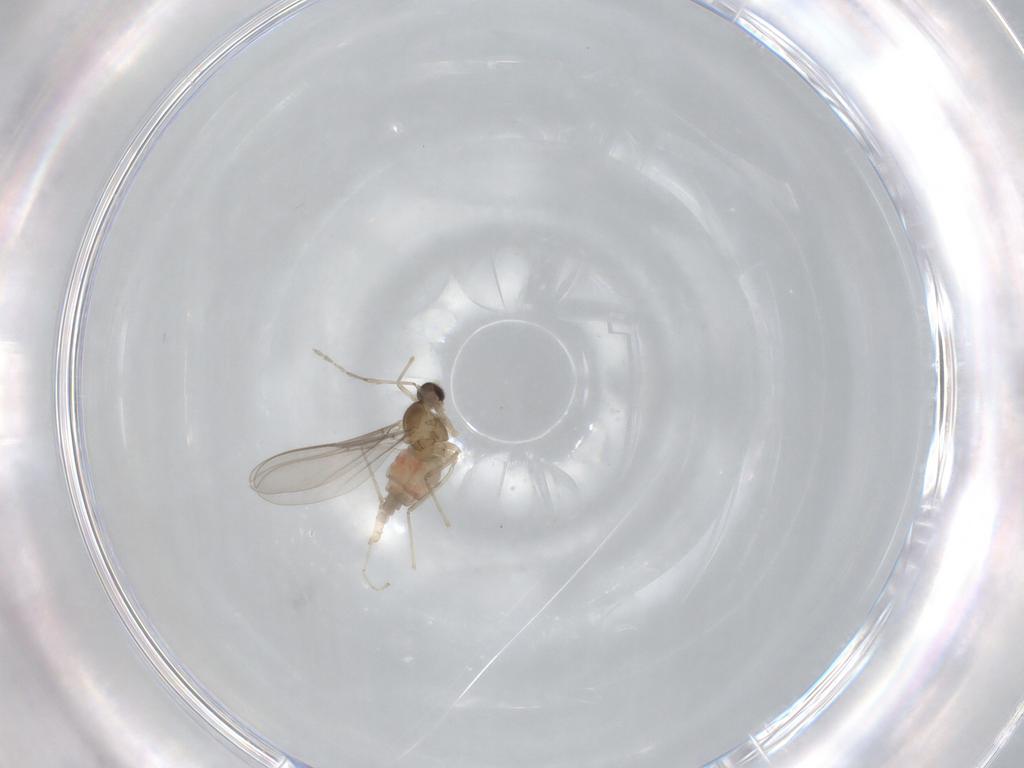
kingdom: Animalia
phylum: Arthropoda
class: Insecta
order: Diptera
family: Cecidomyiidae
